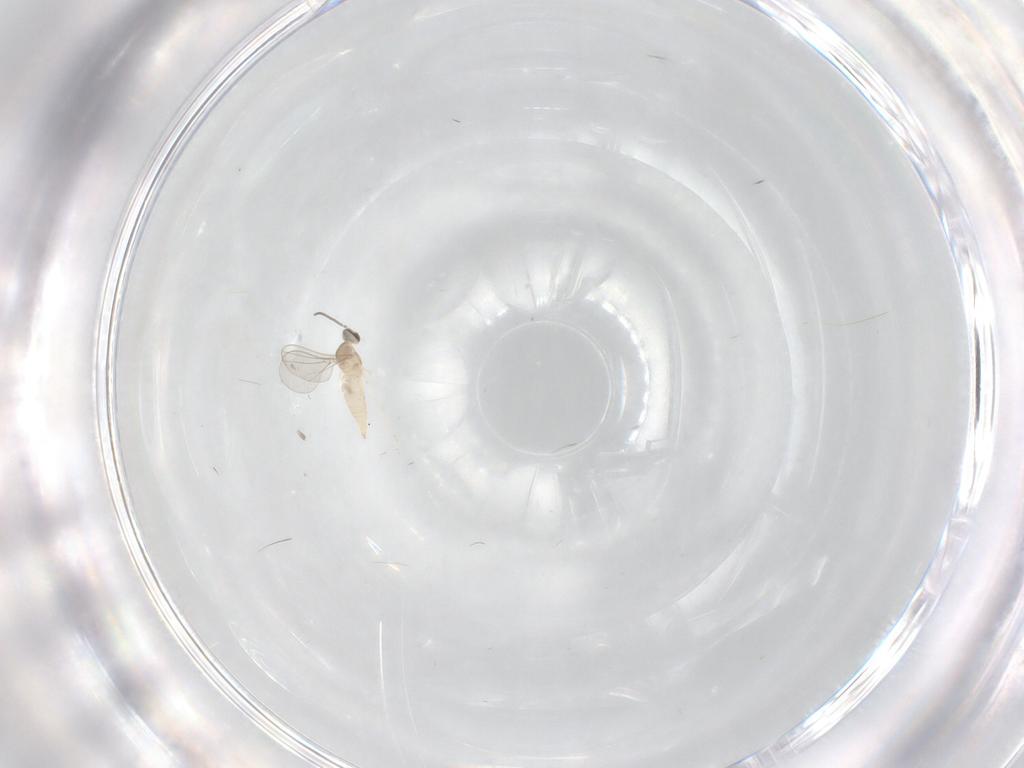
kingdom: Animalia
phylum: Arthropoda
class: Insecta
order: Diptera
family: Cecidomyiidae
